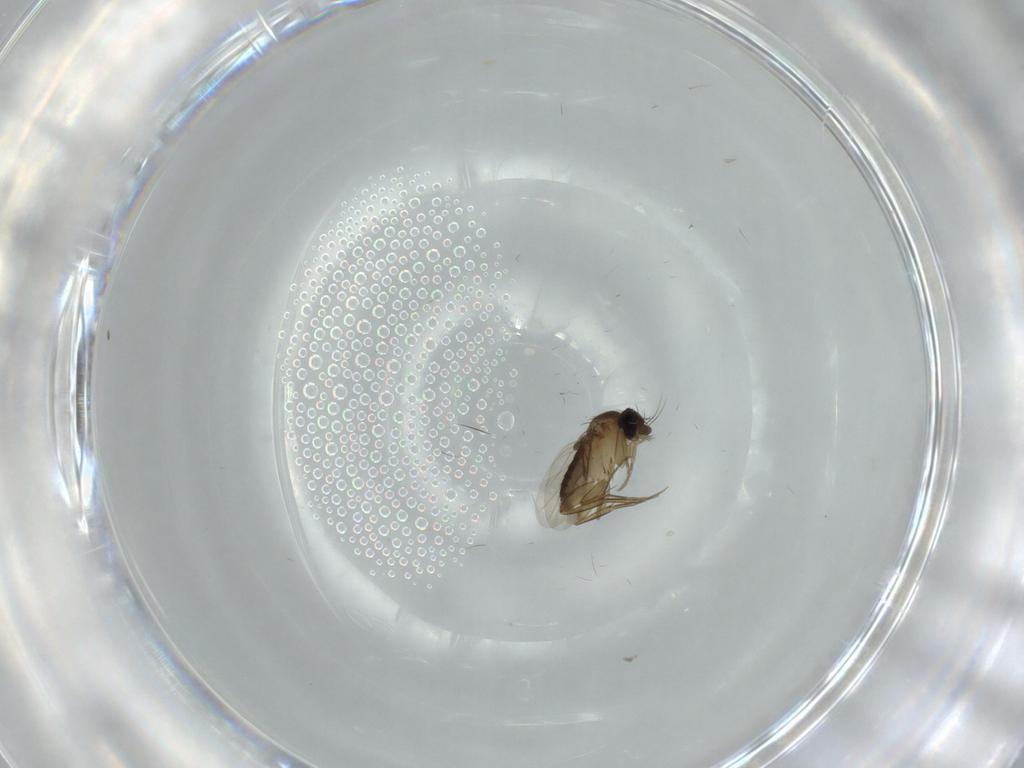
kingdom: Animalia
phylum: Arthropoda
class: Insecta
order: Diptera
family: Phoridae
